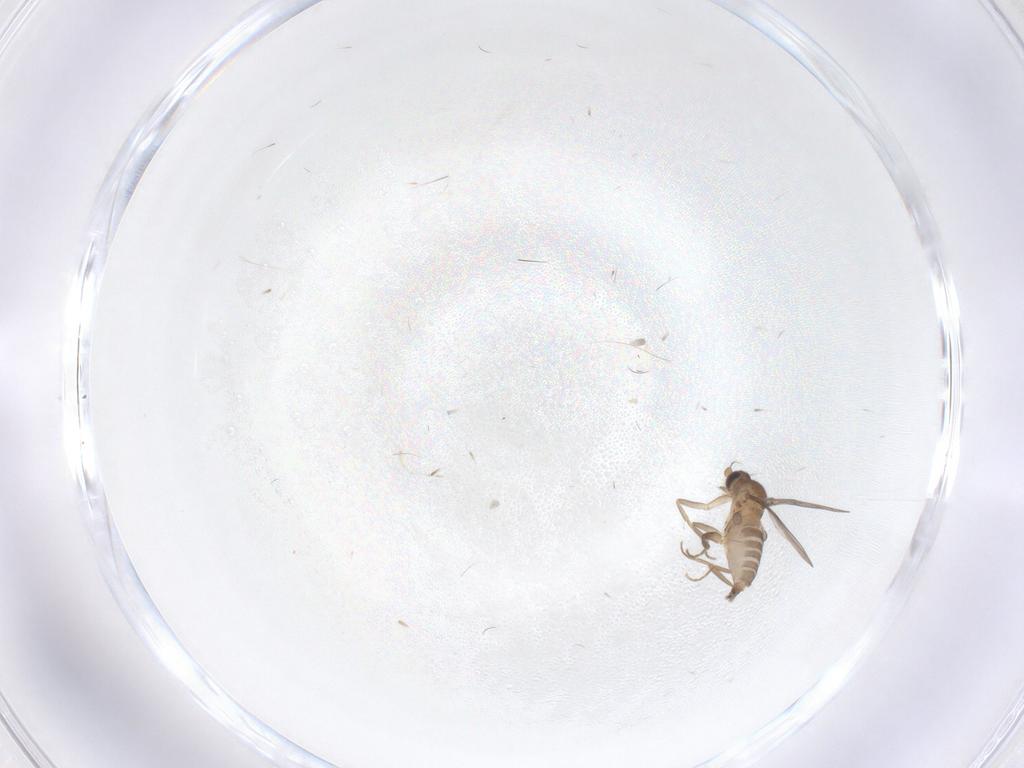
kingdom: Animalia
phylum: Arthropoda
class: Insecta
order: Diptera
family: Cecidomyiidae
